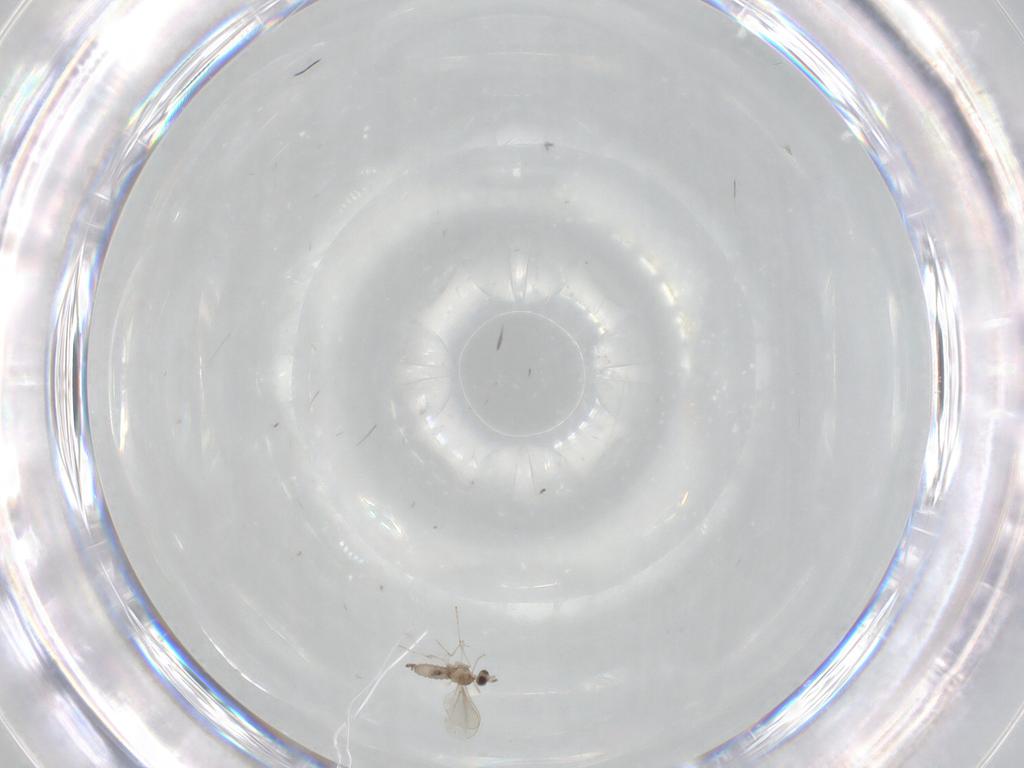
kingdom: Animalia
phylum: Arthropoda
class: Insecta
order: Diptera
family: Cecidomyiidae
